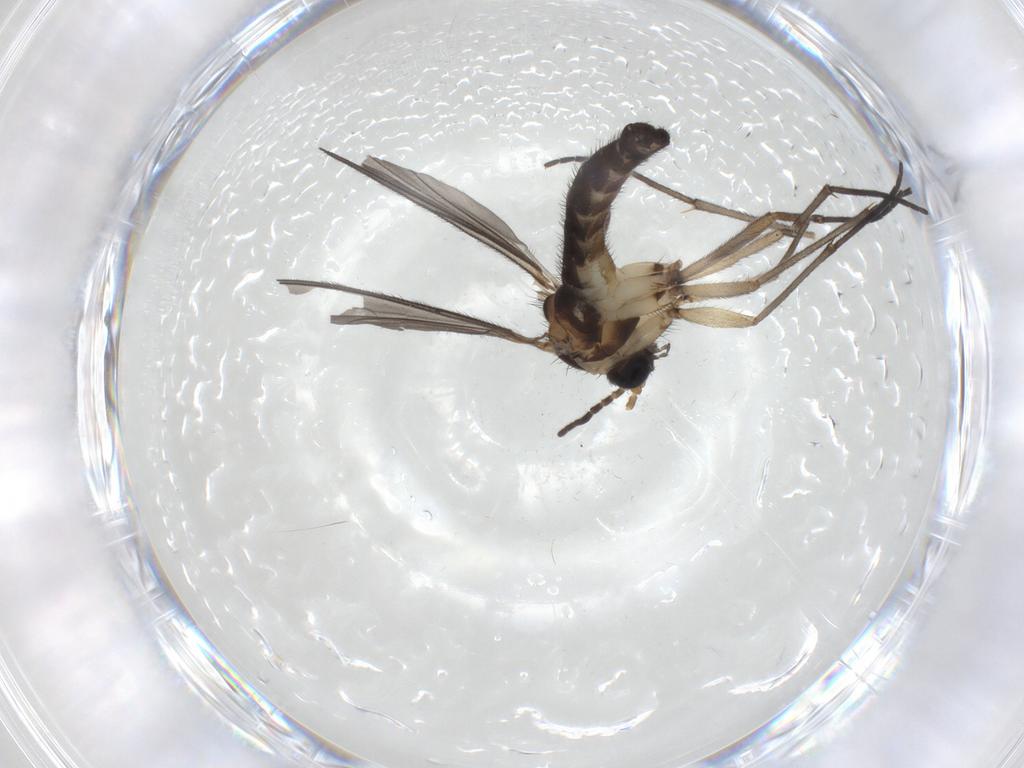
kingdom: Animalia
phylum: Arthropoda
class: Insecta
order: Diptera
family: Sciaridae
